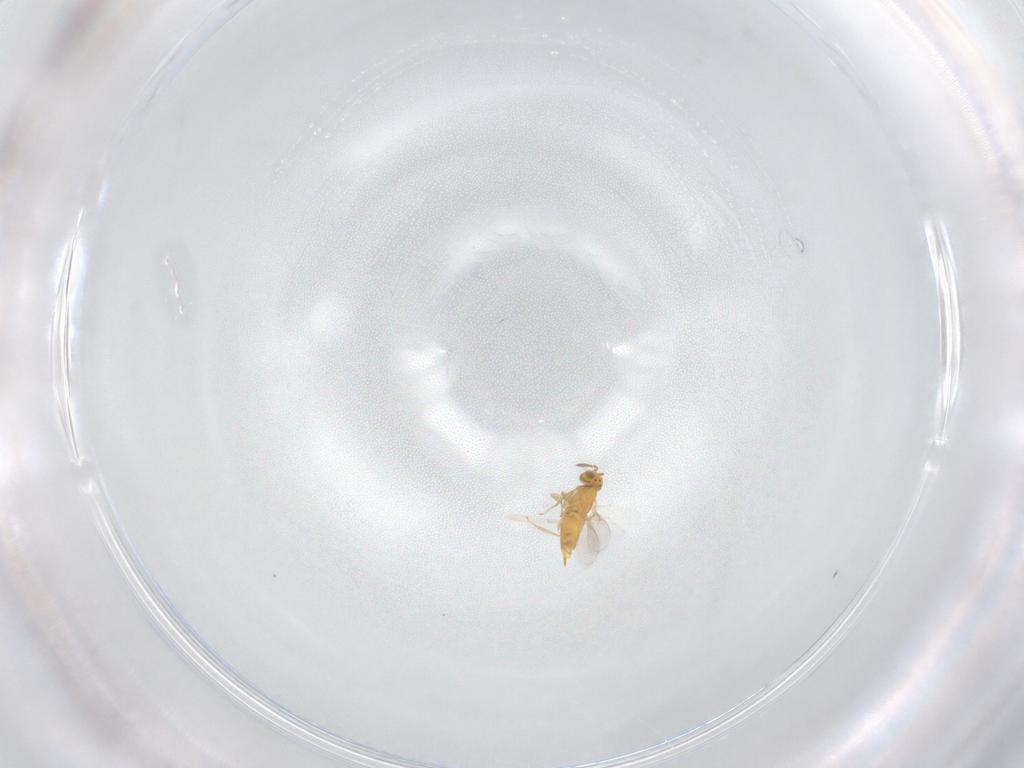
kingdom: Animalia
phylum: Arthropoda
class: Insecta
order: Hymenoptera
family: Aphelinidae
